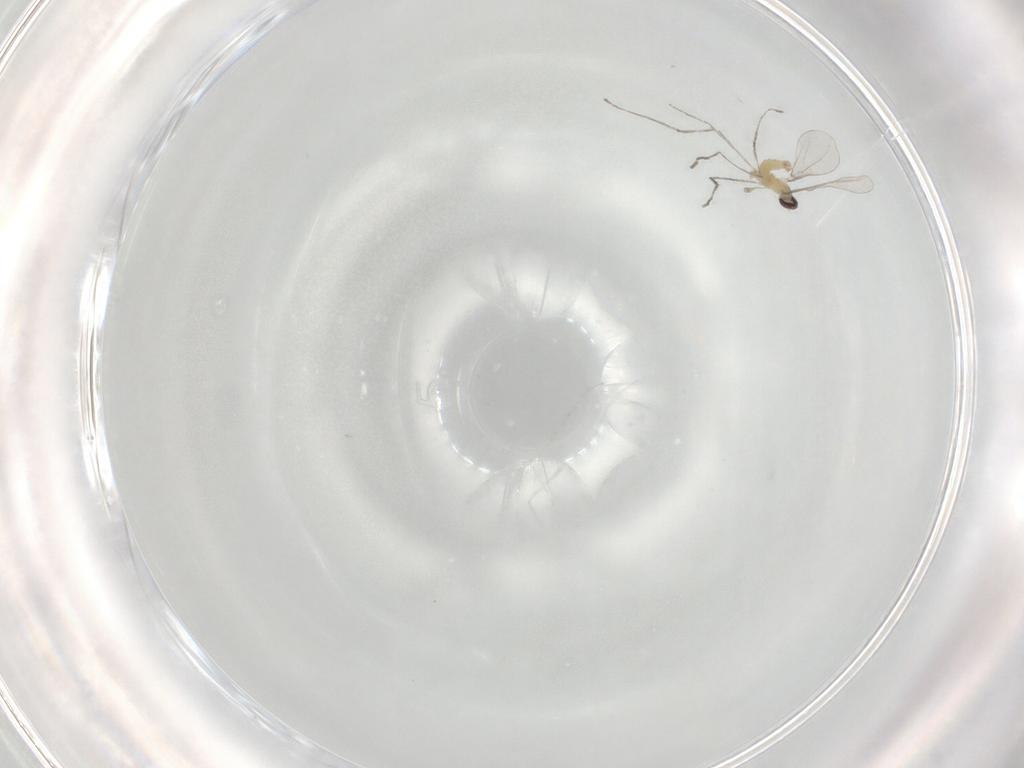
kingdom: Animalia
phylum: Arthropoda
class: Insecta
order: Diptera
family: Cecidomyiidae
